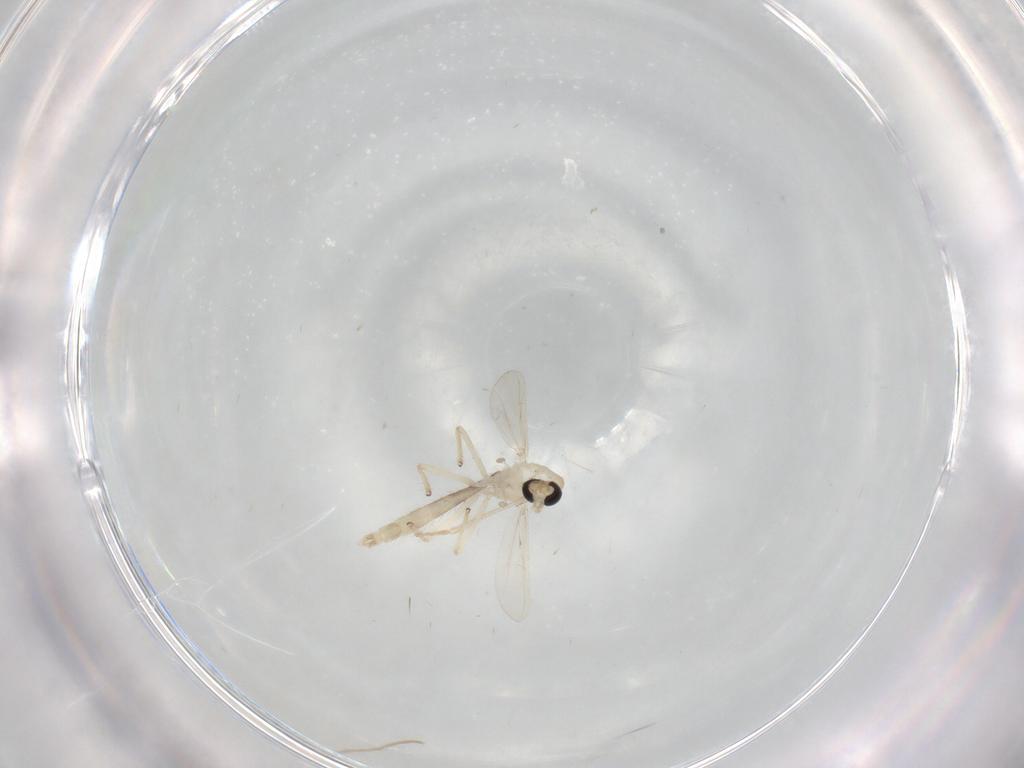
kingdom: Animalia
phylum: Arthropoda
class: Insecta
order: Diptera
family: Chironomidae
